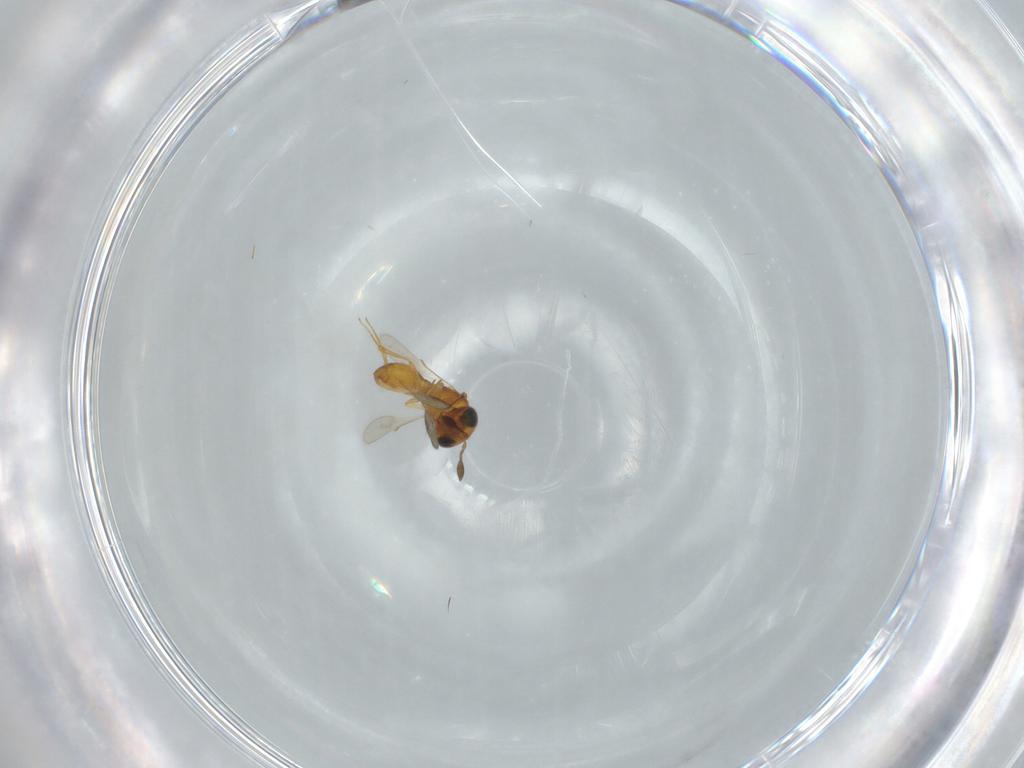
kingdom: Animalia
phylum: Arthropoda
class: Insecta
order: Hymenoptera
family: Scelionidae
